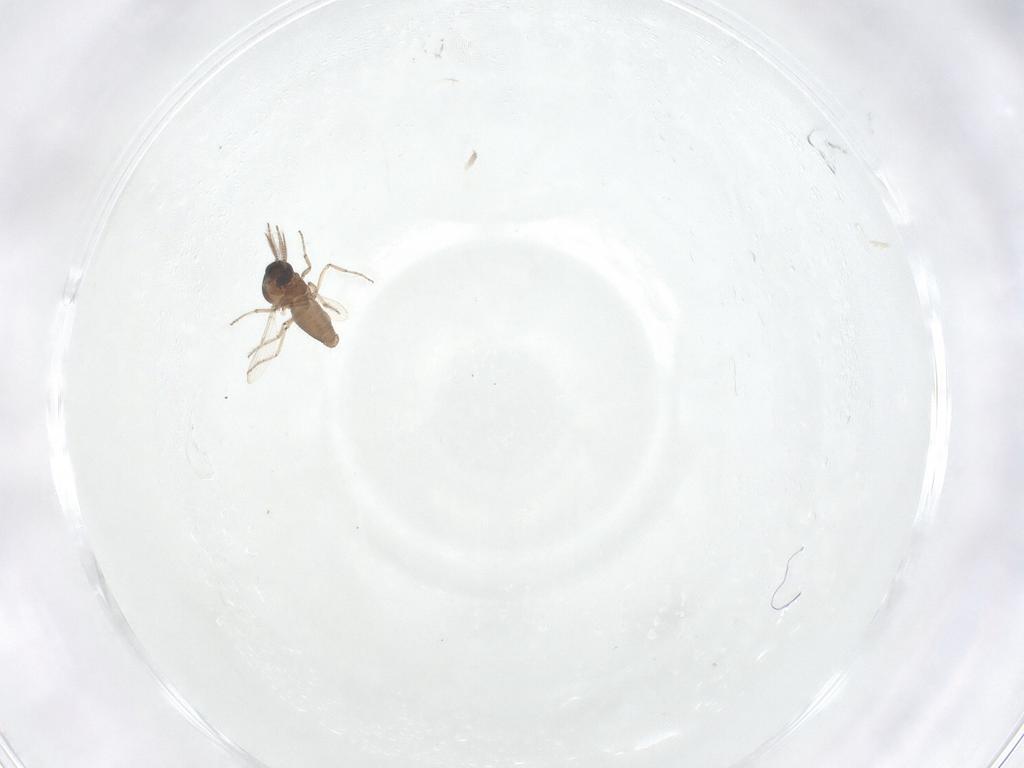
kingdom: Animalia
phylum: Arthropoda
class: Insecta
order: Diptera
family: Ceratopogonidae
